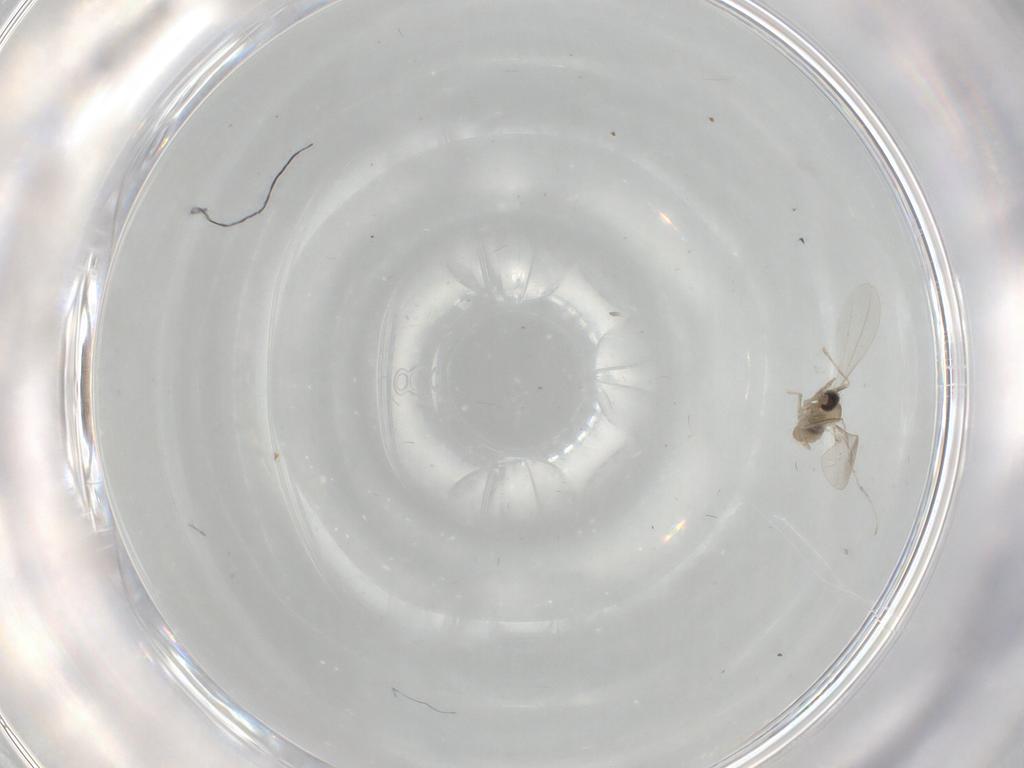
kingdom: Animalia
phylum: Arthropoda
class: Insecta
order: Diptera
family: Cecidomyiidae
